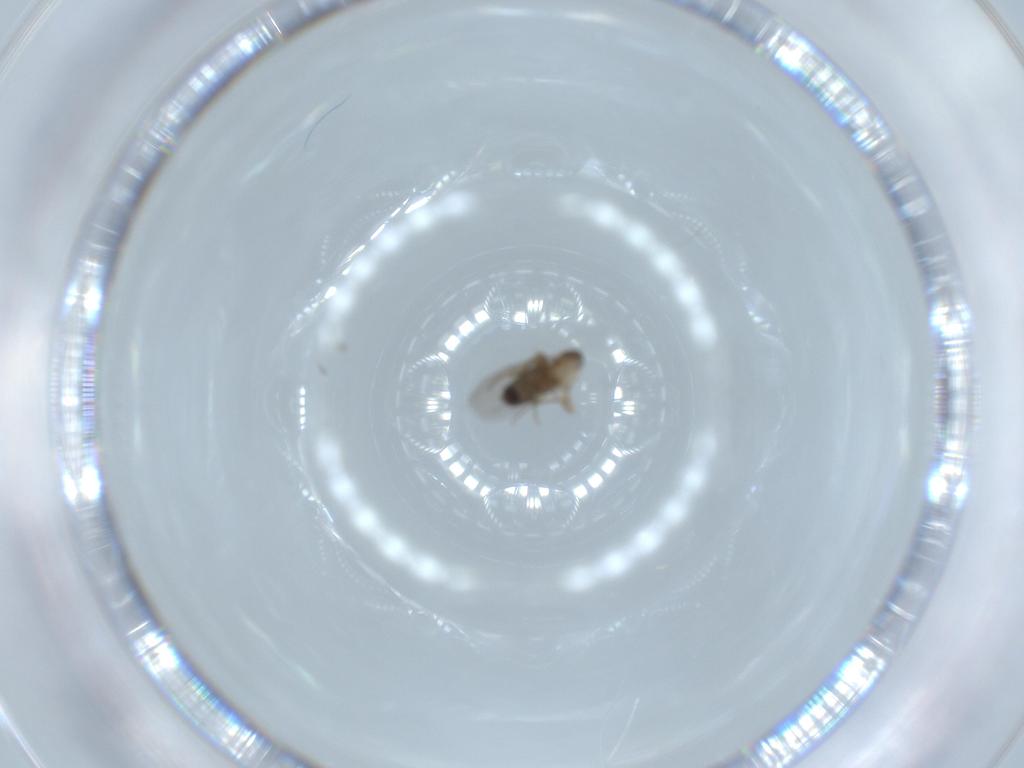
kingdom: Animalia
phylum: Arthropoda
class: Insecta
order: Diptera
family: Phoridae
